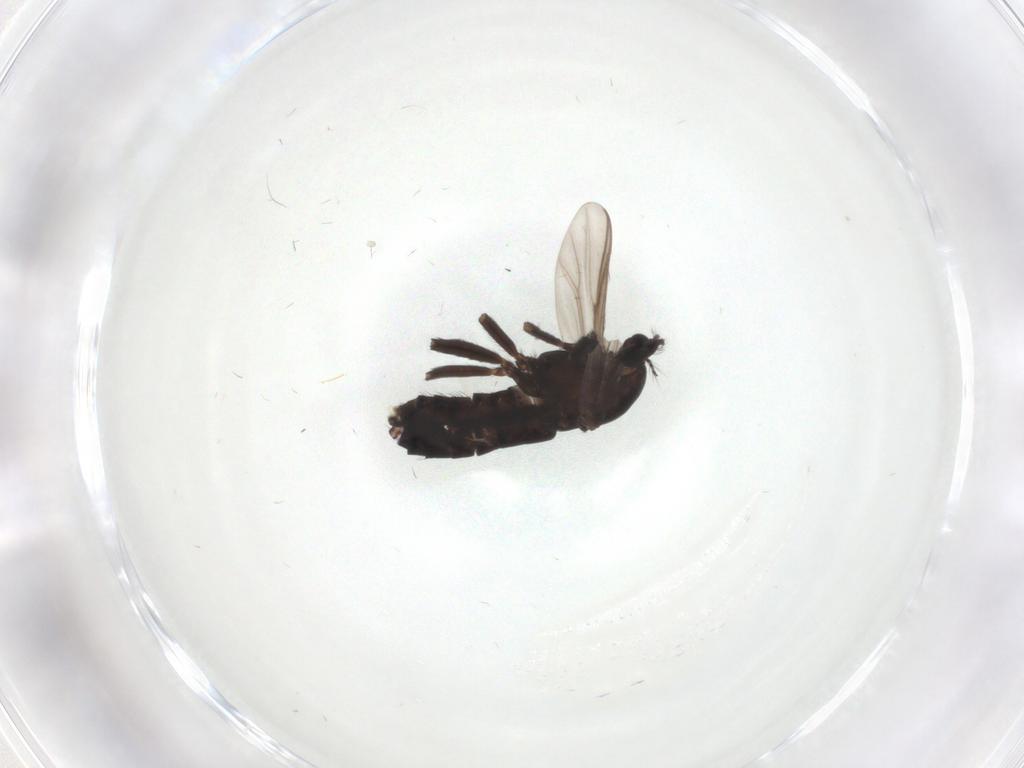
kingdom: Animalia
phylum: Arthropoda
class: Insecta
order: Diptera
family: Chironomidae
